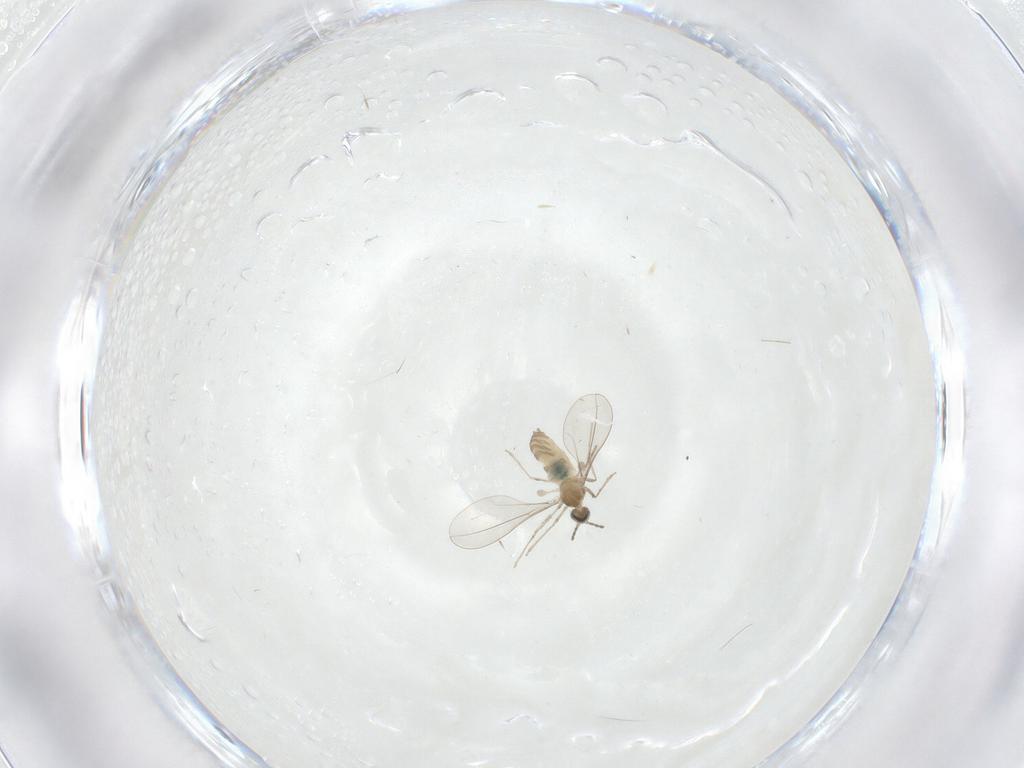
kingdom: Animalia
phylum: Arthropoda
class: Insecta
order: Diptera
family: Cecidomyiidae
